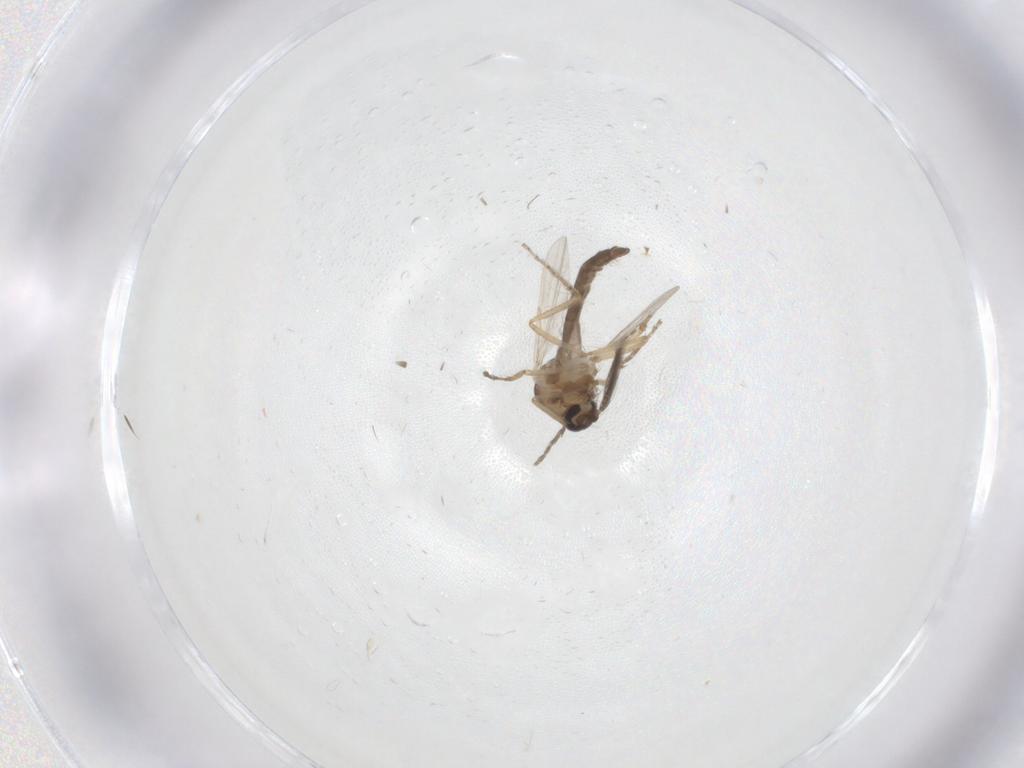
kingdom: Animalia
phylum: Arthropoda
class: Insecta
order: Diptera
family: Ceratopogonidae
